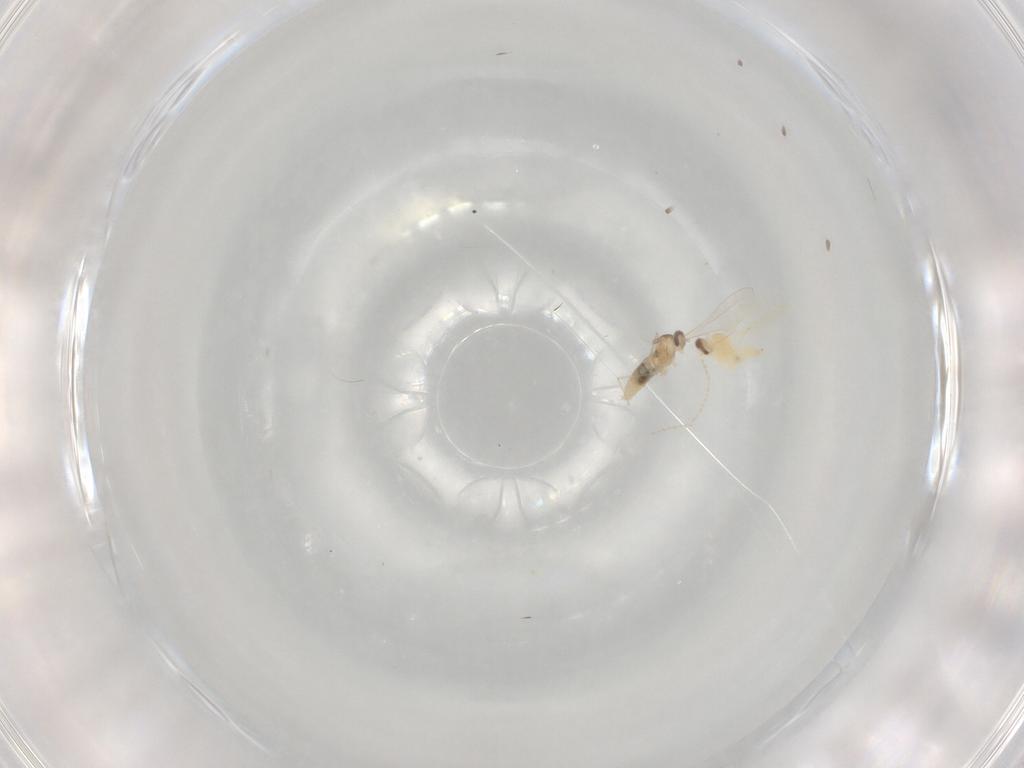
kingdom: Animalia
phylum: Arthropoda
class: Insecta
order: Diptera
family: Cecidomyiidae
